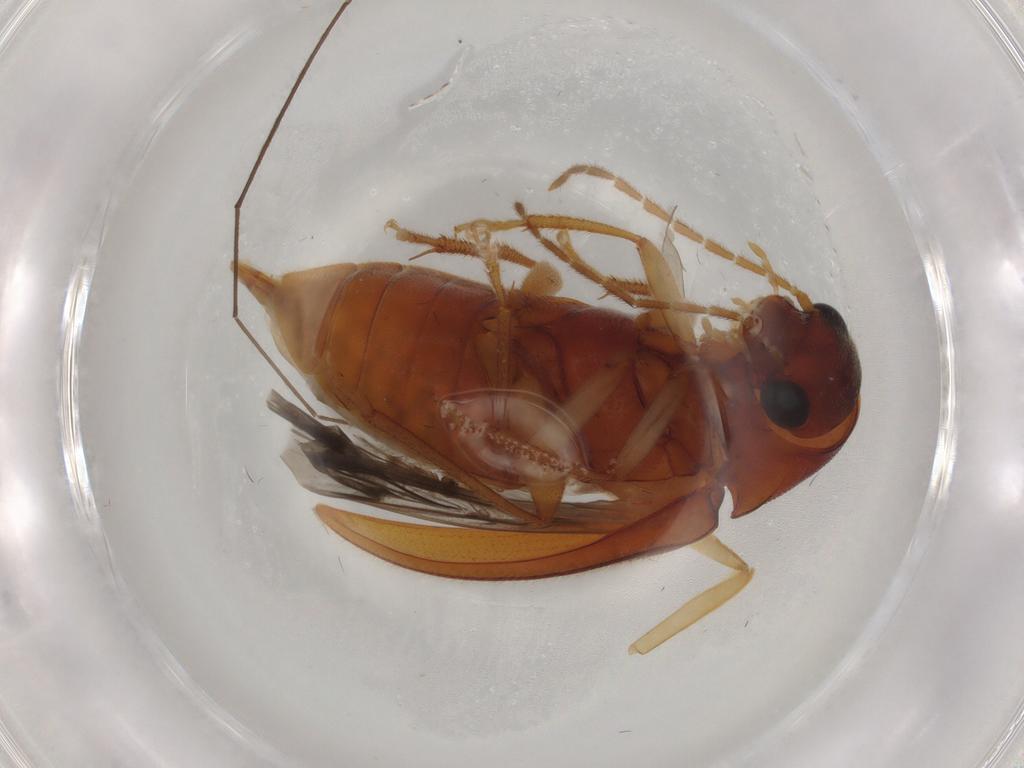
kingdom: Animalia
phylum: Arthropoda
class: Insecta
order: Coleoptera
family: Ptilodactylidae
